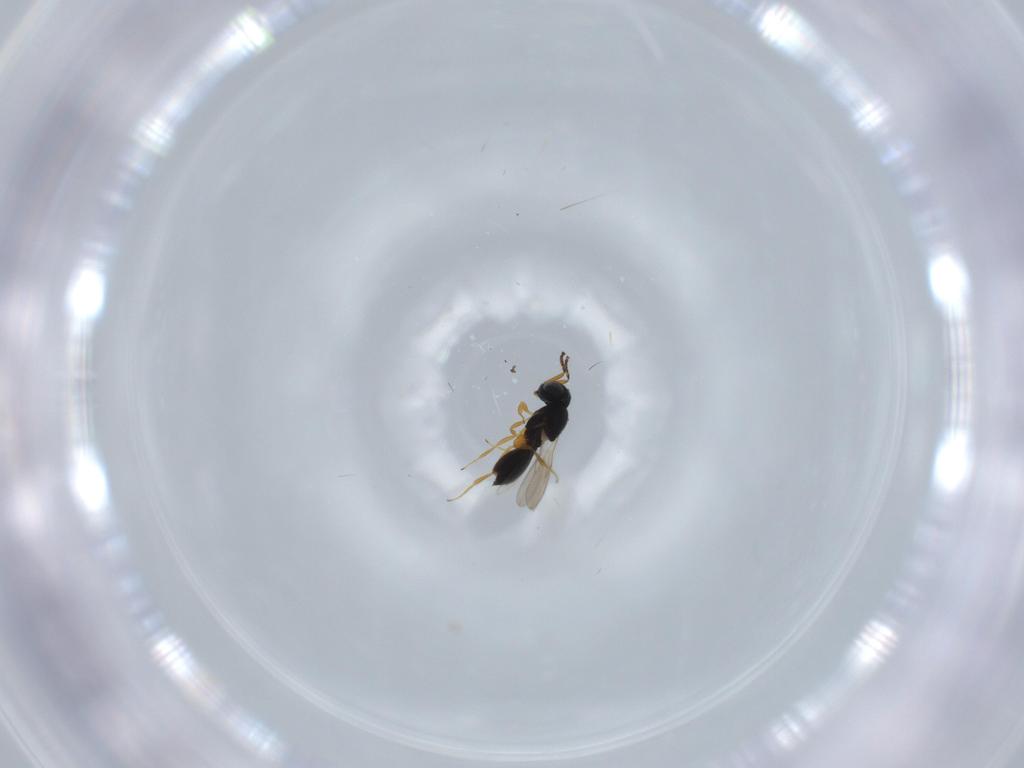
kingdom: Animalia
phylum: Arthropoda
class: Insecta
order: Hymenoptera
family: Scelionidae
